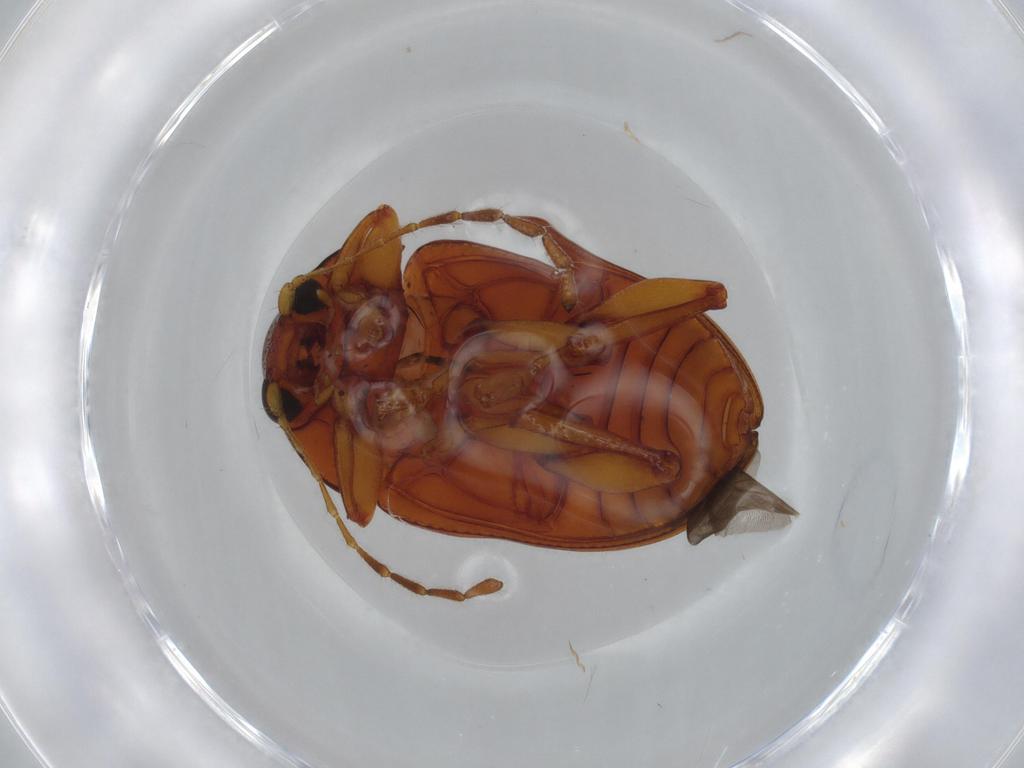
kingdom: Animalia
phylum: Arthropoda
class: Insecta
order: Coleoptera
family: Chrysomelidae
